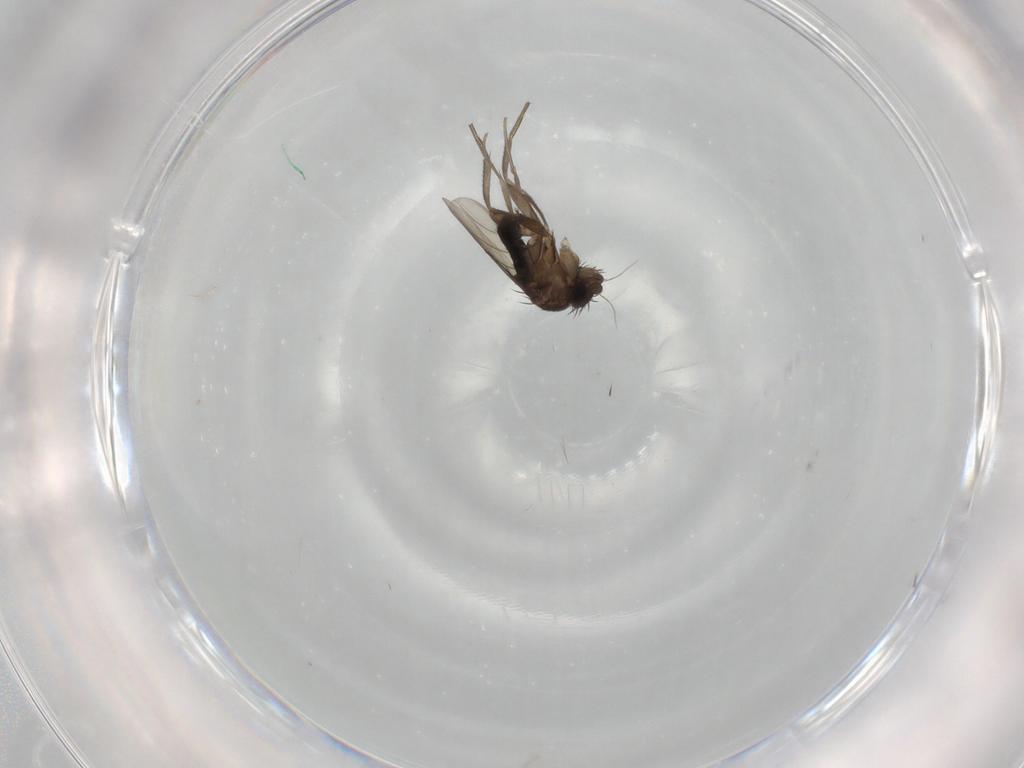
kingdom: Animalia
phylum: Arthropoda
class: Insecta
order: Diptera
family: Phoridae
